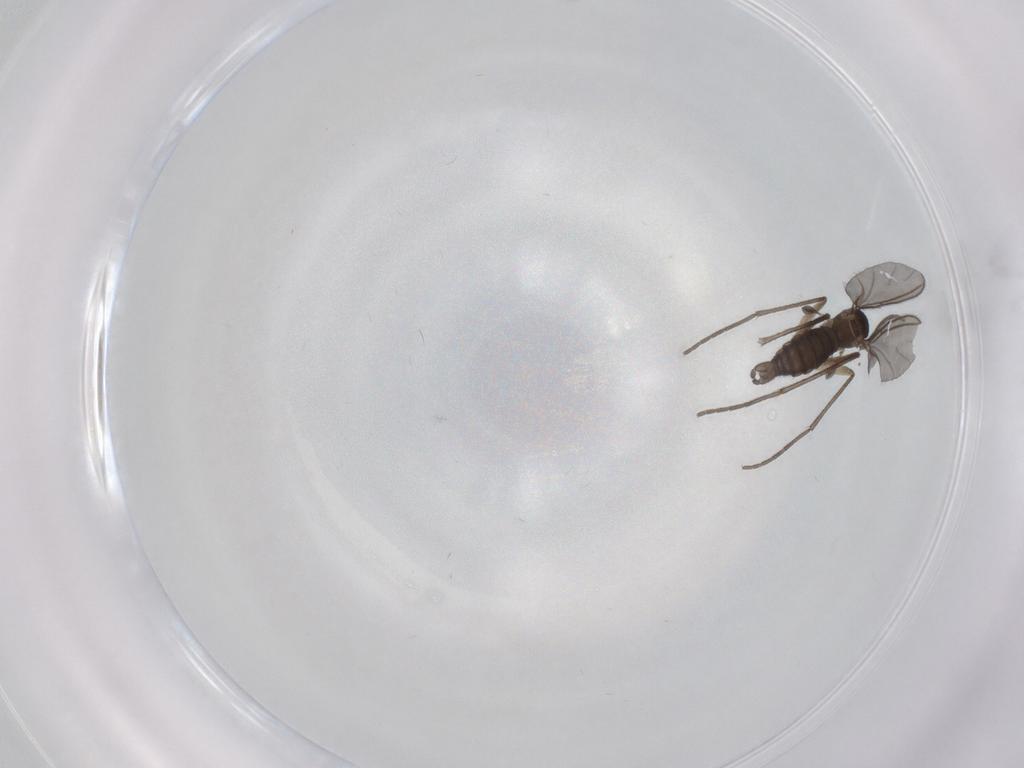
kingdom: Animalia
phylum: Arthropoda
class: Insecta
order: Diptera
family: Sciaridae
